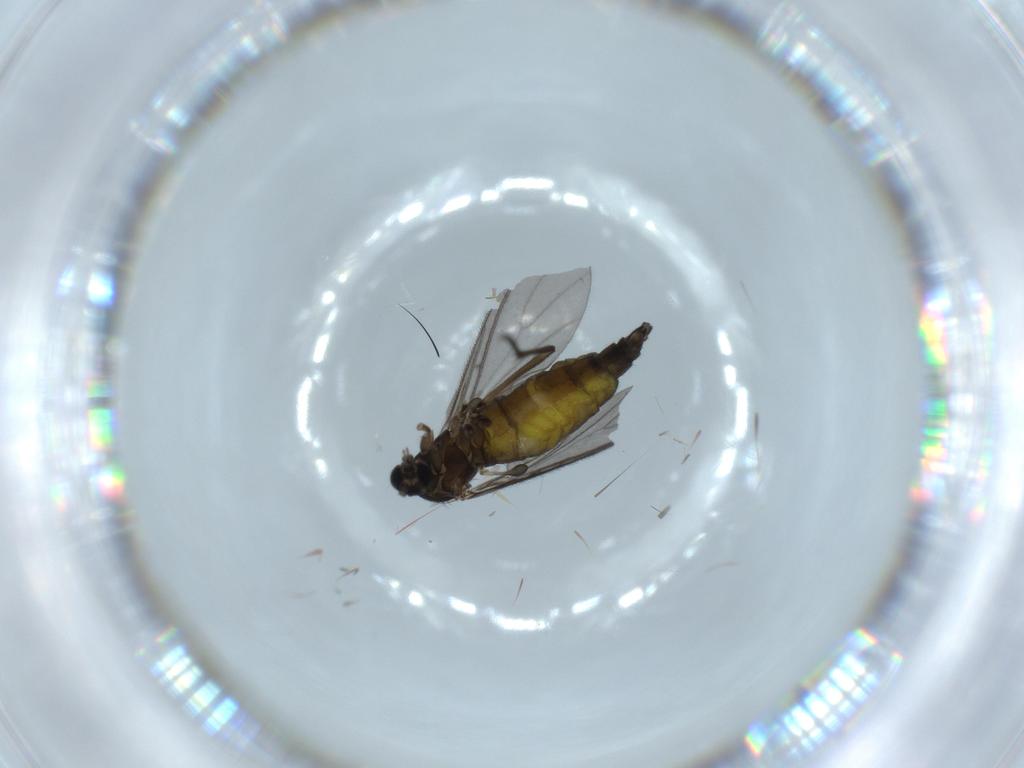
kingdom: Animalia
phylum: Arthropoda
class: Insecta
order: Diptera
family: Sciaridae
